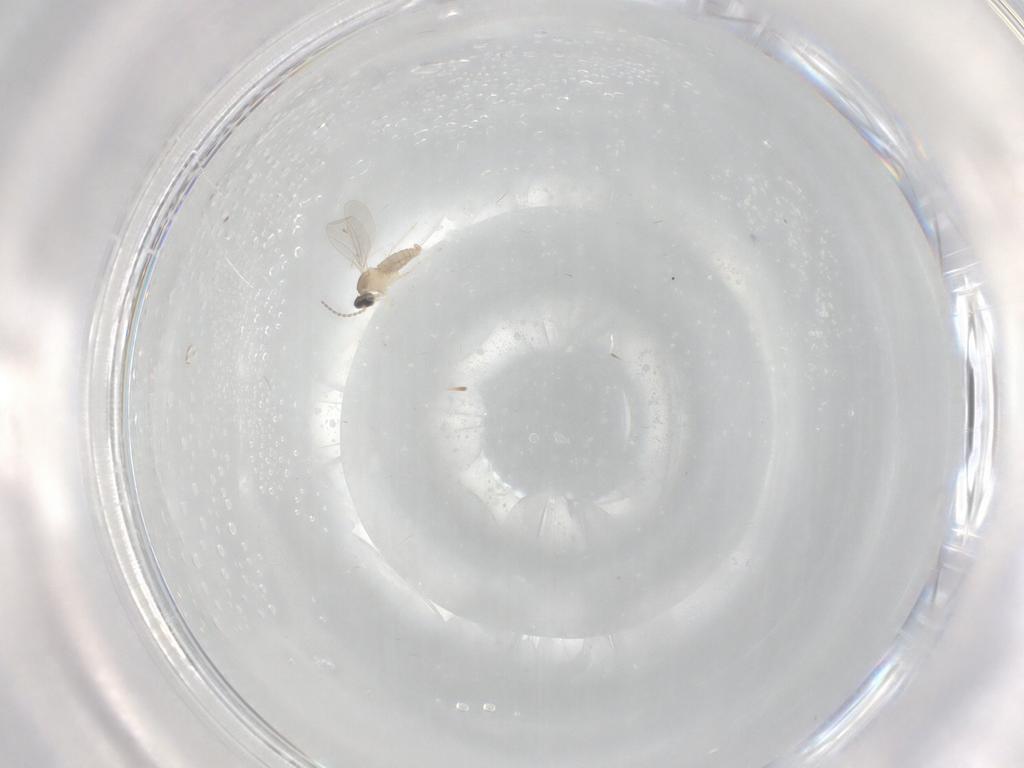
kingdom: Animalia
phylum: Arthropoda
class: Insecta
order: Diptera
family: Cecidomyiidae
